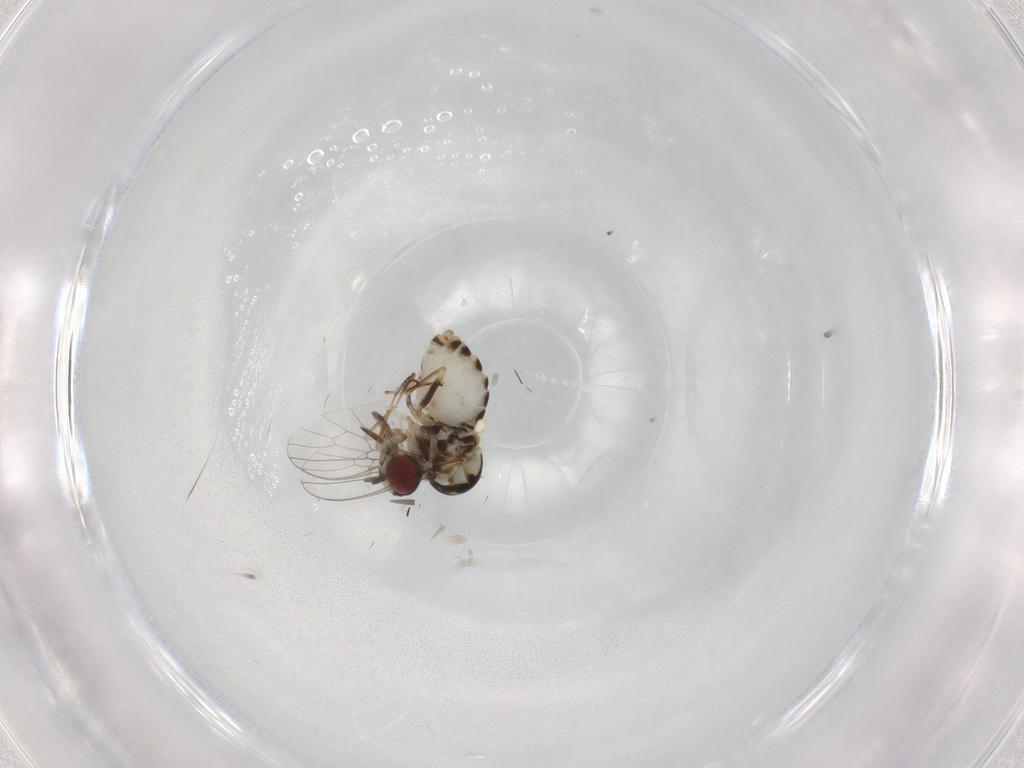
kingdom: Animalia
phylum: Arthropoda
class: Insecta
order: Diptera
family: Bombyliidae
